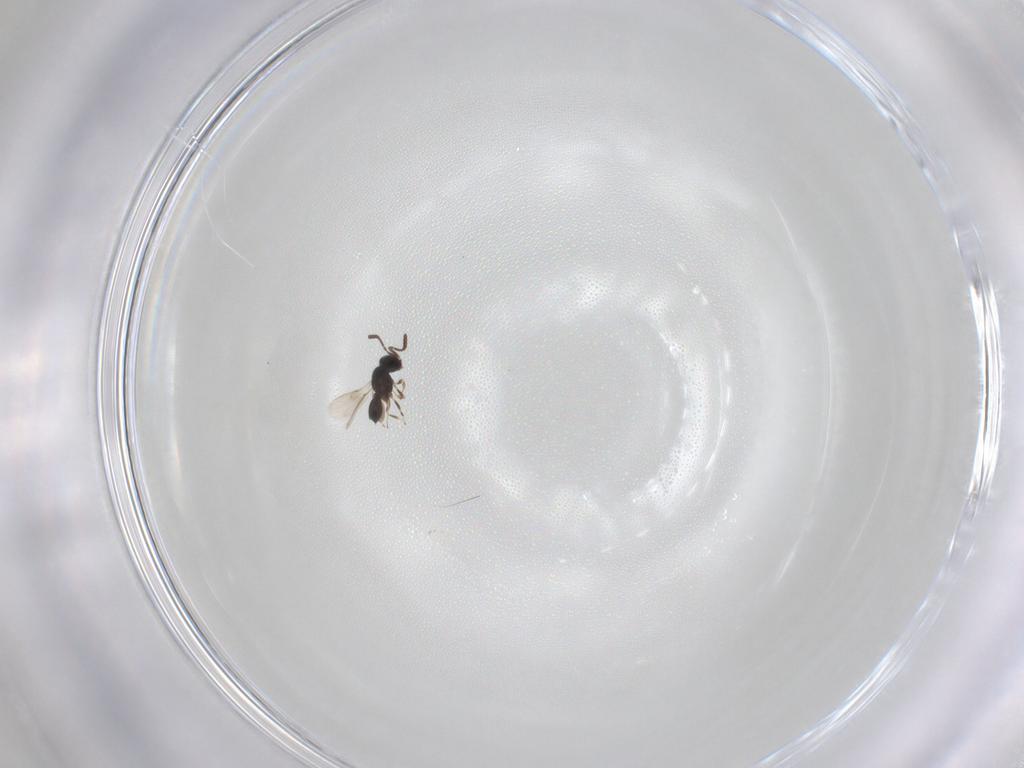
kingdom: Animalia
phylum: Arthropoda
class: Insecta
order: Hymenoptera
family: Scelionidae
